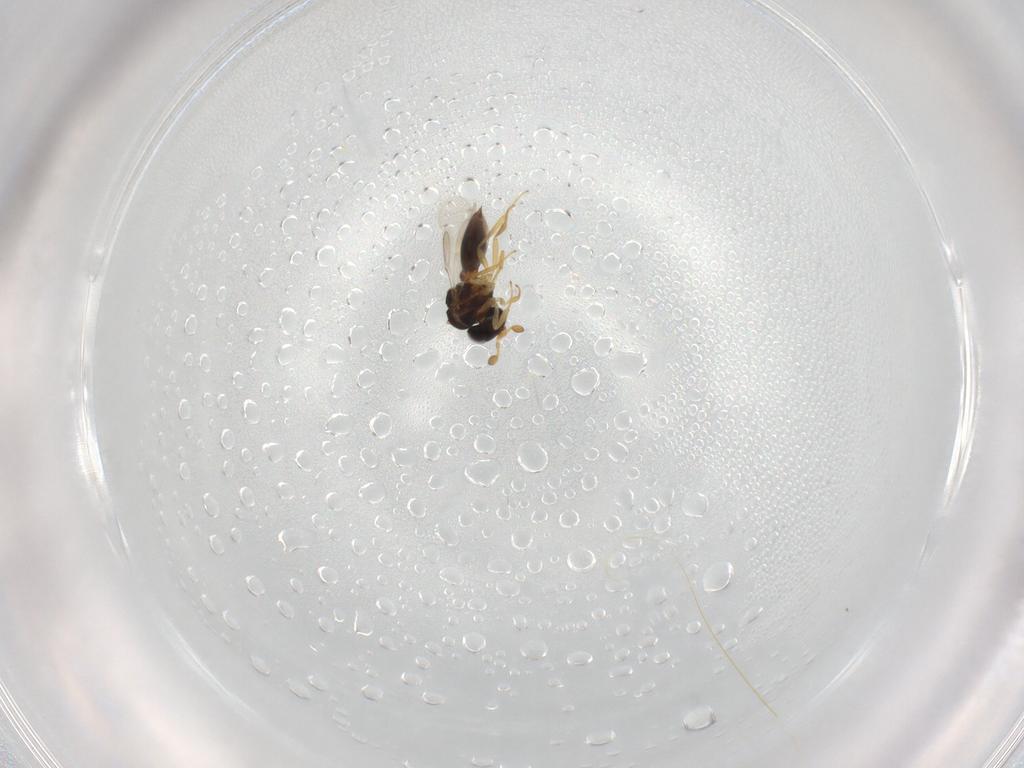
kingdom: Animalia
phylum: Arthropoda
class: Insecta
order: Hymenoptera
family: Scelionidae
